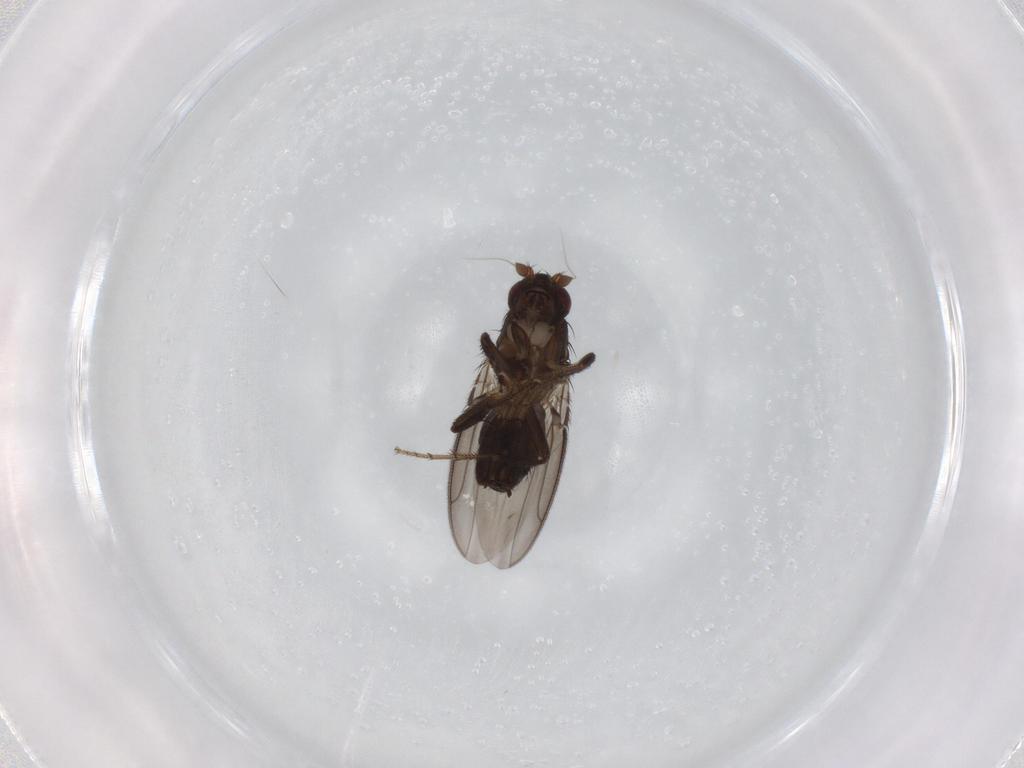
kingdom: Animalia
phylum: Arthropoda
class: Insecta
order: Diptera
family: Sphaeroceridae
